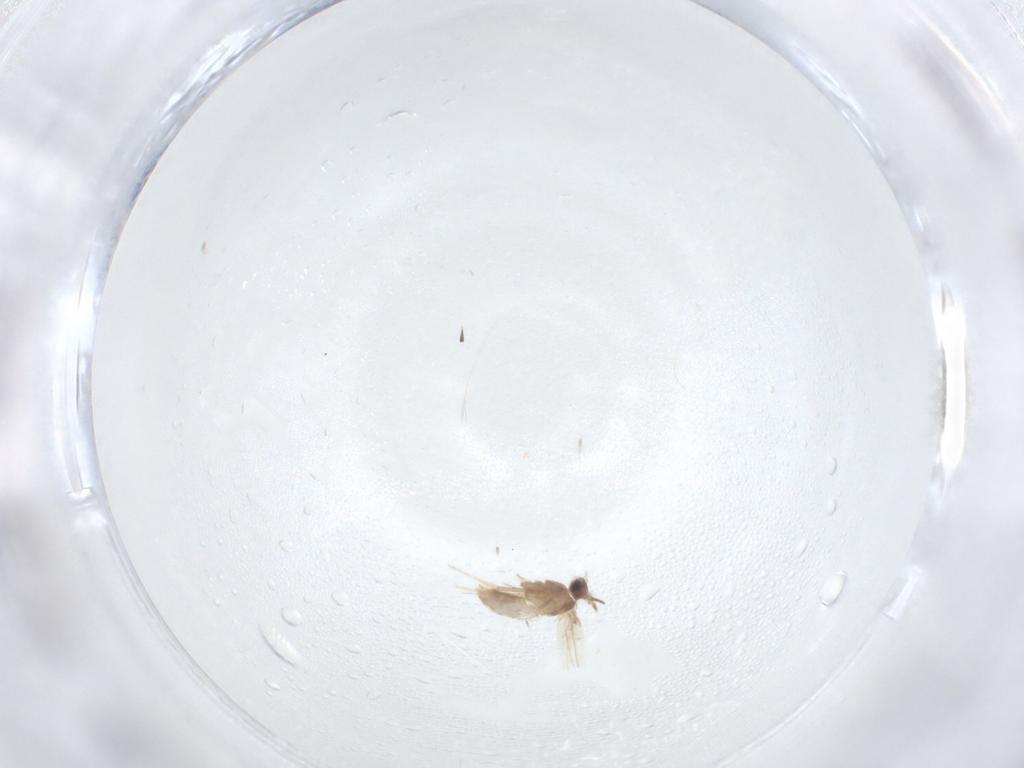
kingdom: Animalia
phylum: Arthropoda
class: Insecta
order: Lepidoptera
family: Nepticulidae
